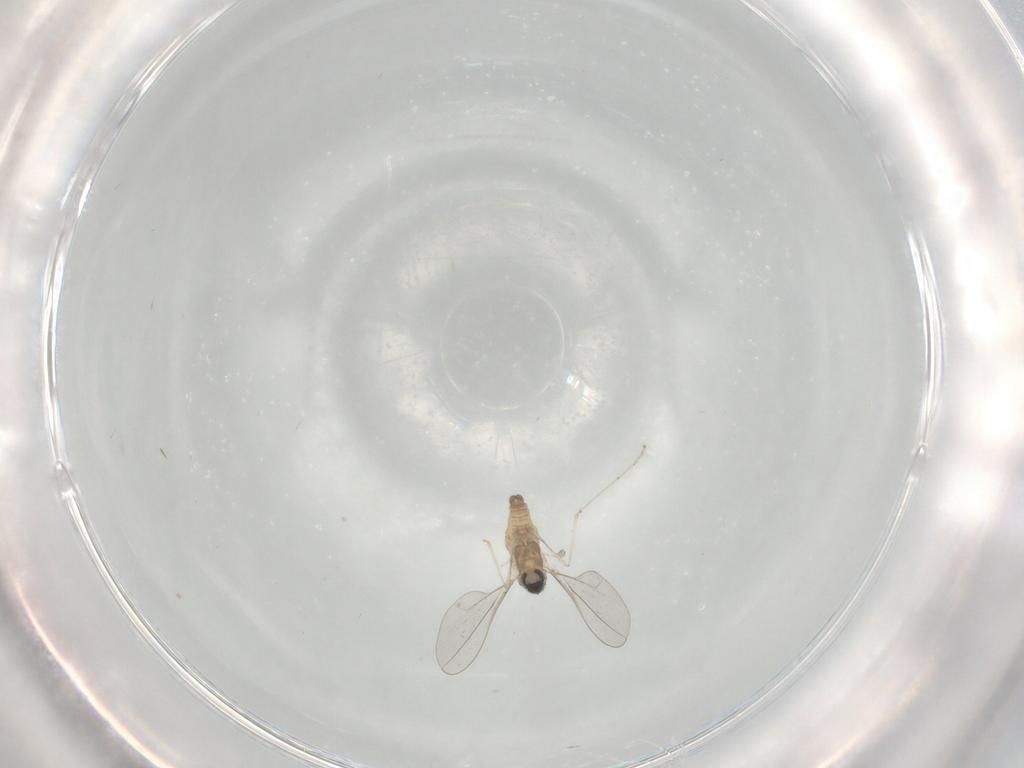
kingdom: Animalia
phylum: Arthropoda
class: Insecta
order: Diptera
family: Cecidomyiidae
